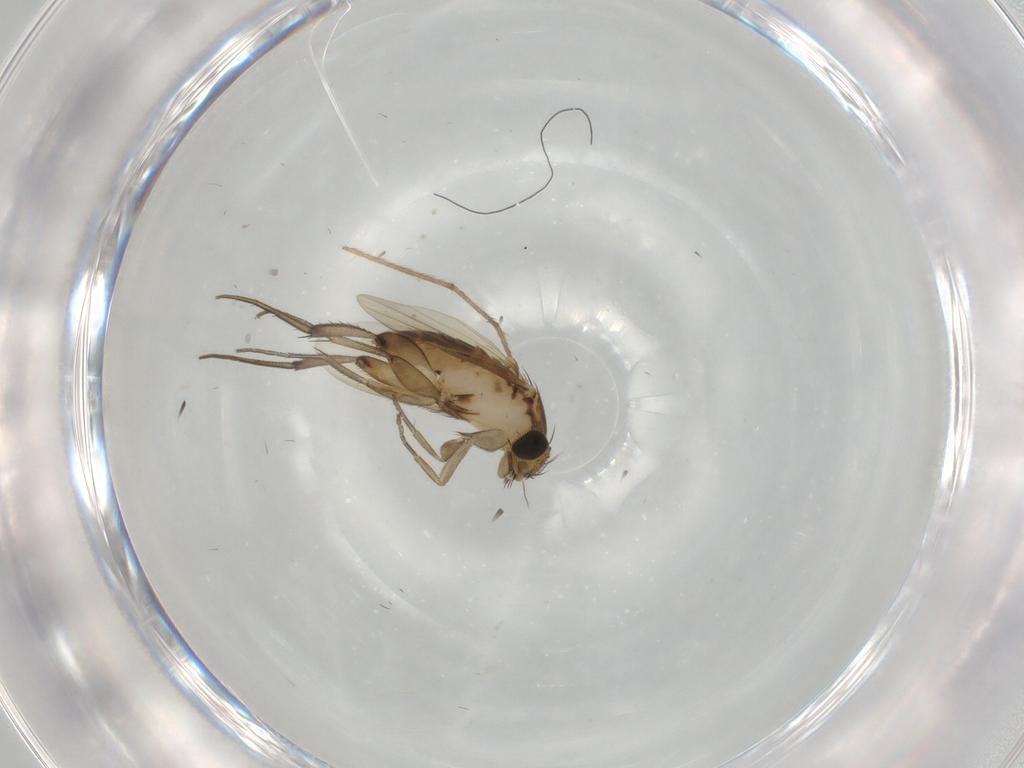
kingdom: Animalia
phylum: Arthropoda
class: Insecta
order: Diptera
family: Phoridae
